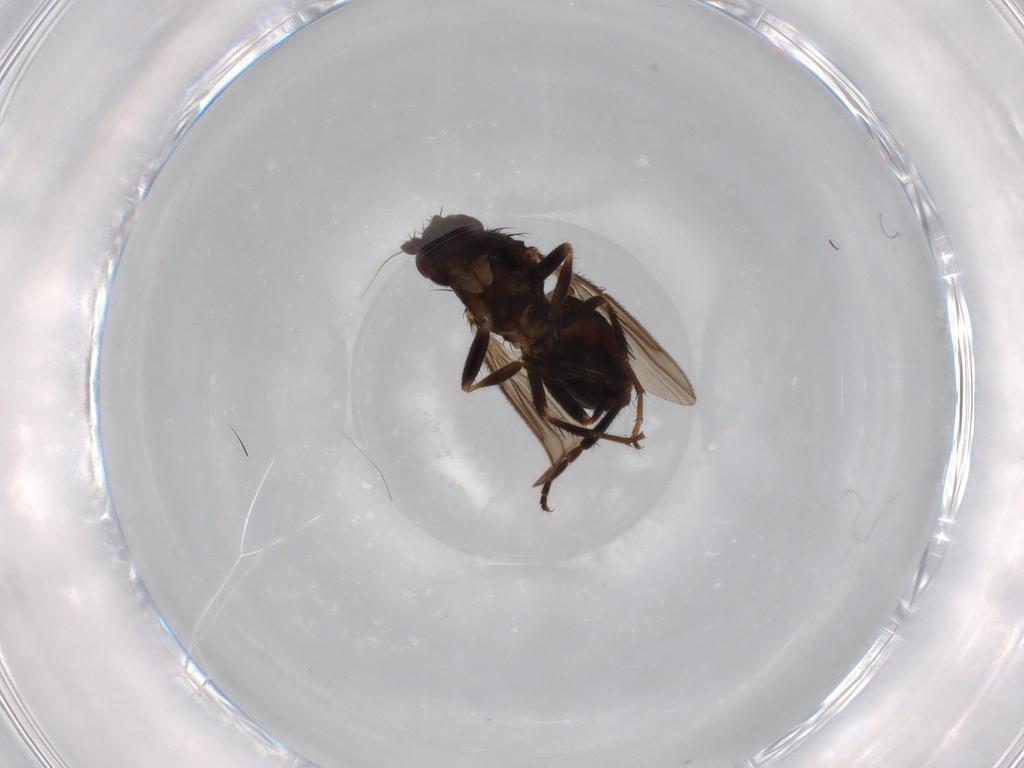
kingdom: Animalia
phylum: Arthropoda
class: Insecta
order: Diptera
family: Sphaeroceridae
